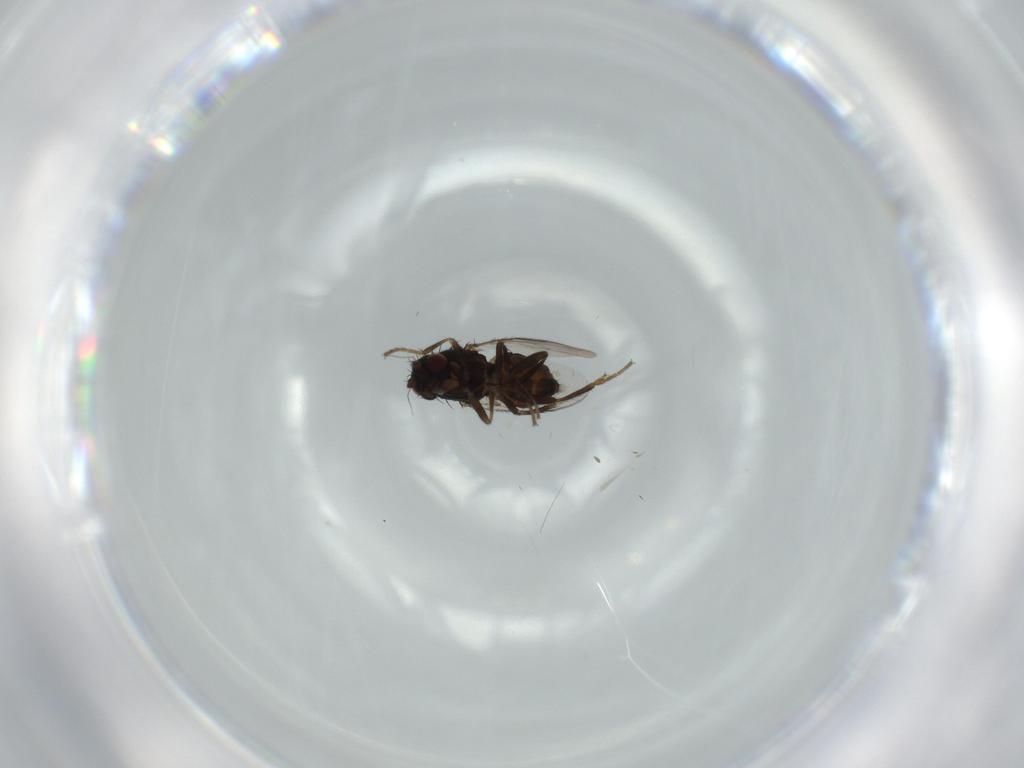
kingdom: Animalia
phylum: Arthropoda
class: Insecta
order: Diptera
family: Sphaeroceridae
